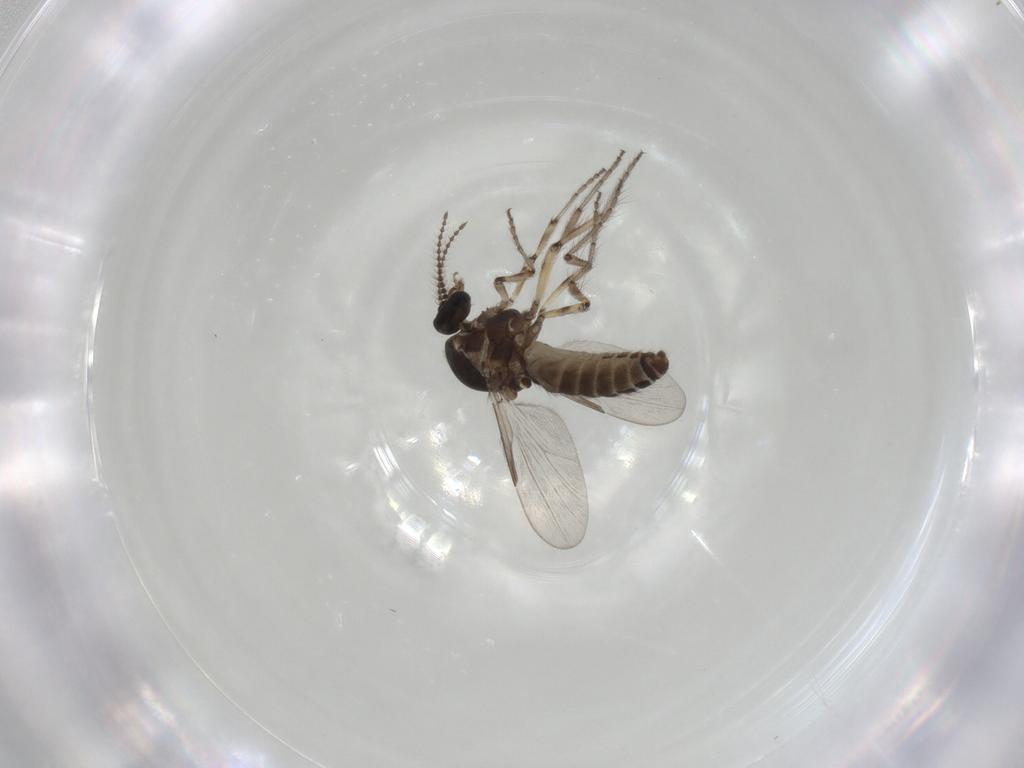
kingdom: Animalia
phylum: Arthropoda
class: Insecta
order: Diptera
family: Ceratopogonidae
